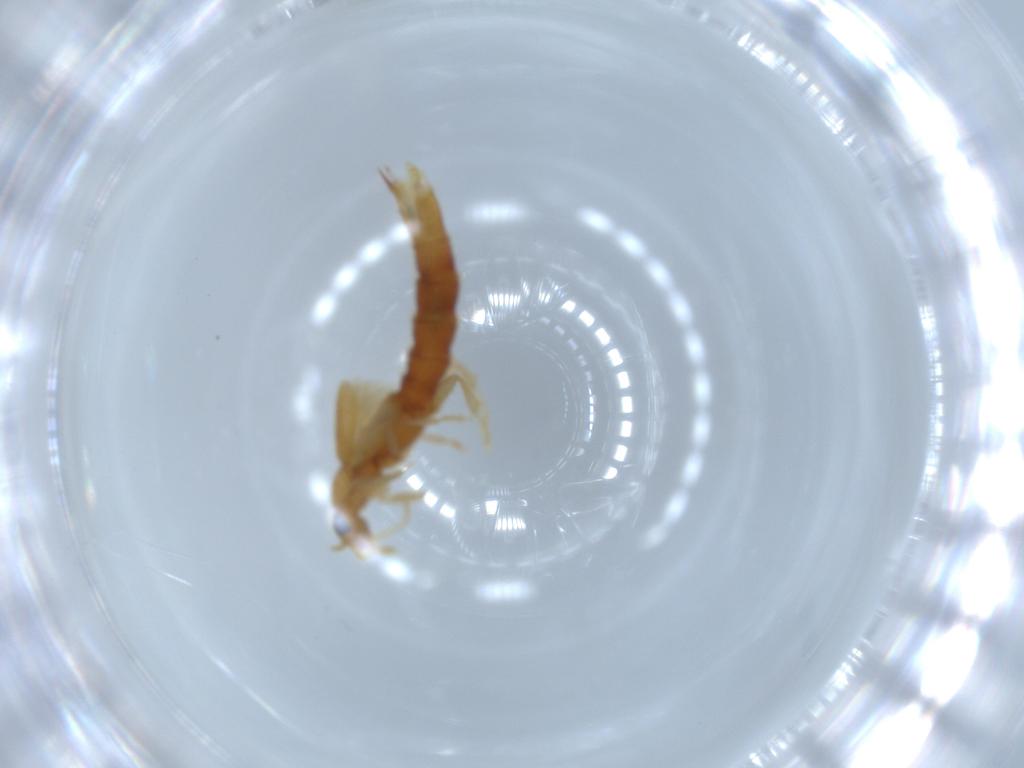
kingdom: Animalia
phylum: Arthropoda
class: Insecta
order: Coleoptera
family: Staphylinidae
